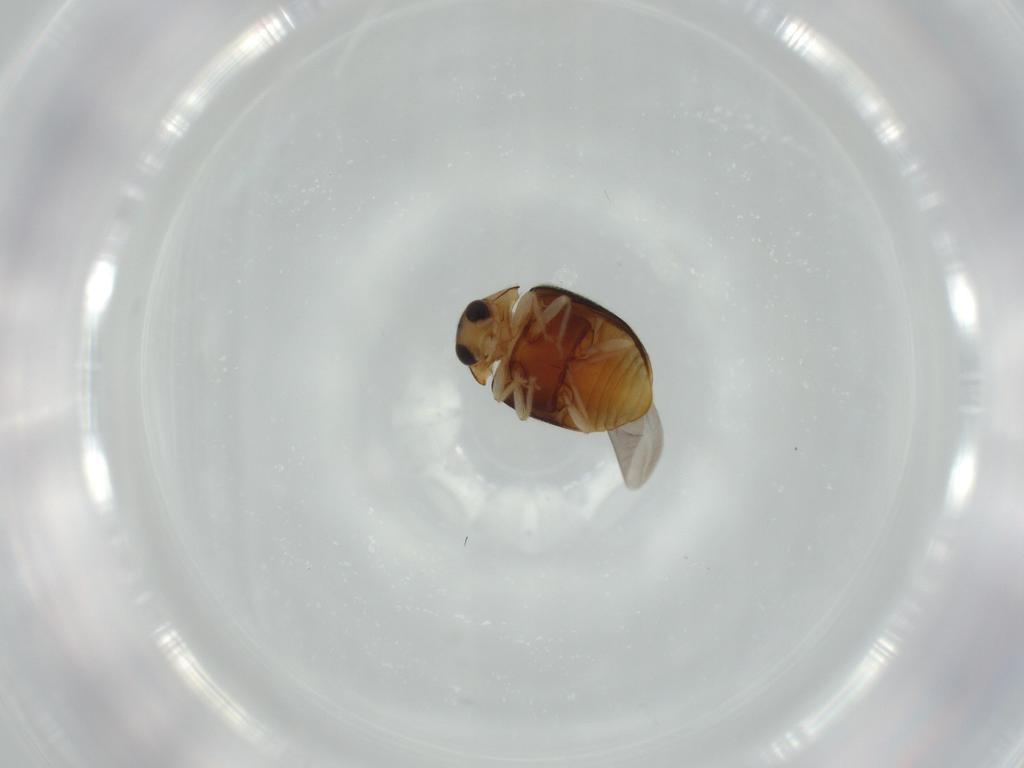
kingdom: Animalia
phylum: Arthropoda
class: Insecta
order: Coleoptera
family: Coccinellidae
